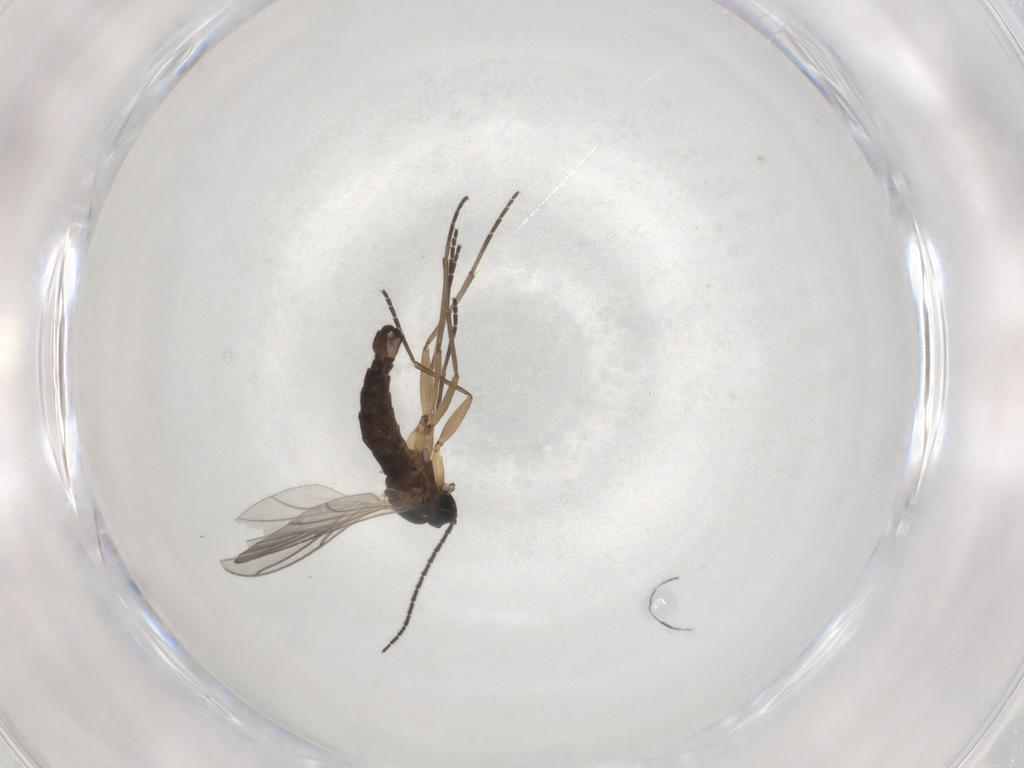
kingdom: Animalia
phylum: Arthropoda
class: Insecta
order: Diptera
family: Sciaridae
